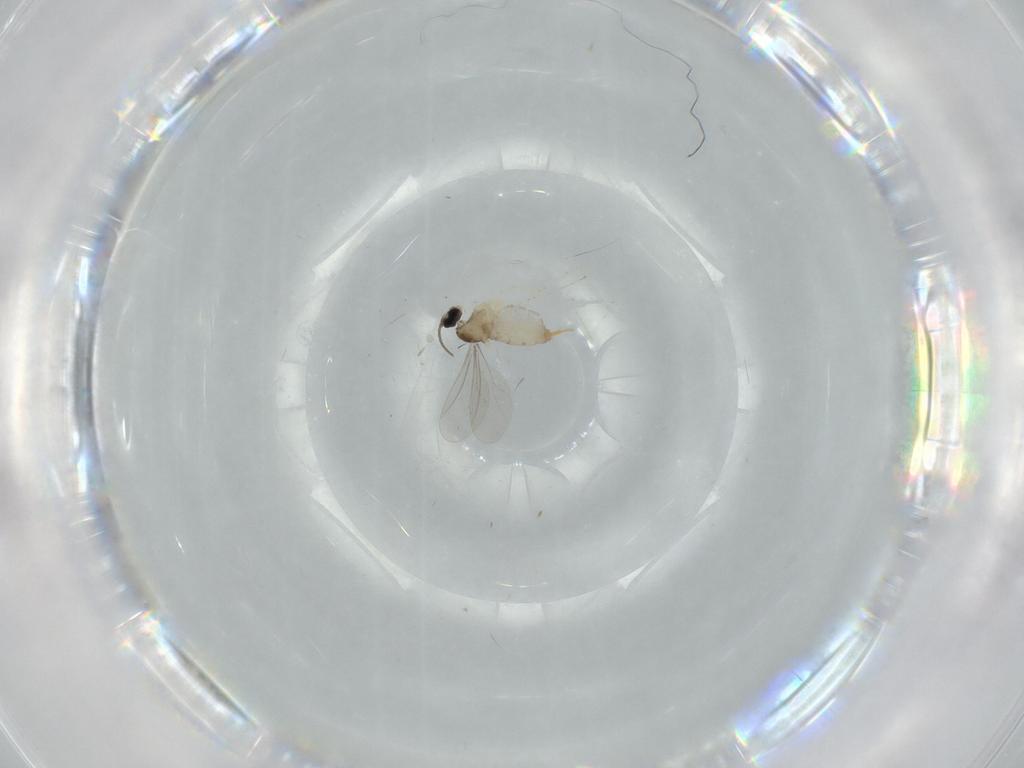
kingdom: Animalia
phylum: Arthropoda
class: Insecta
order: Diptera
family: Cecidomyiidae
